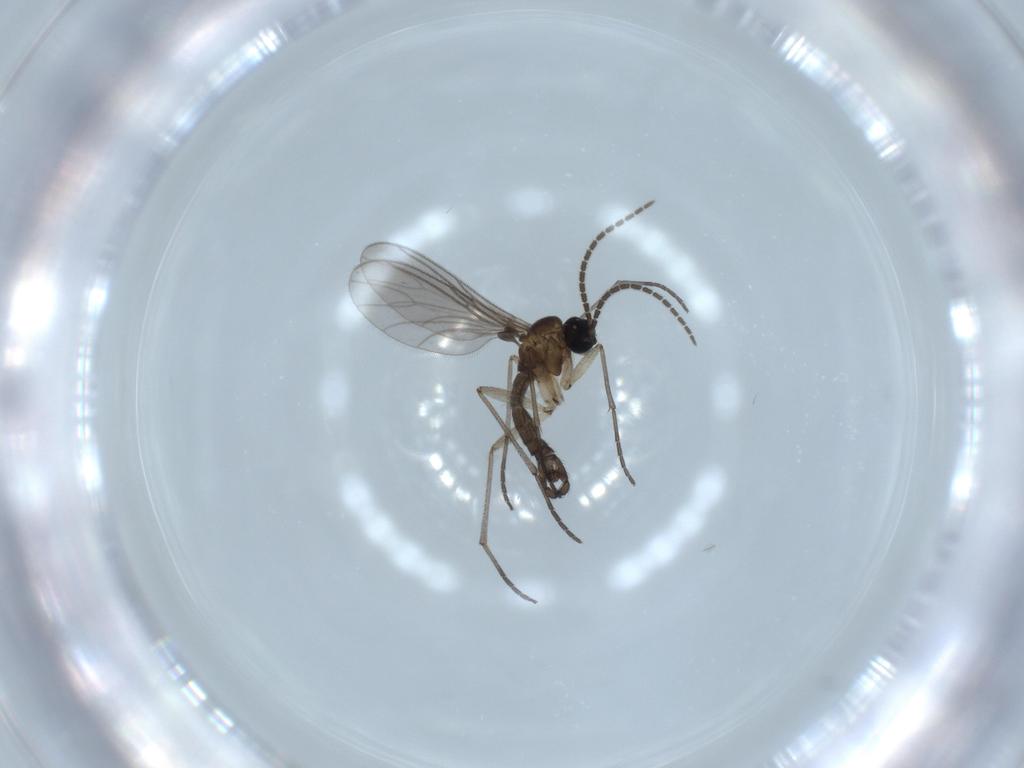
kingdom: Animalia
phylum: Arthropoda
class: Insecta
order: Diptera
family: Sciaridae
